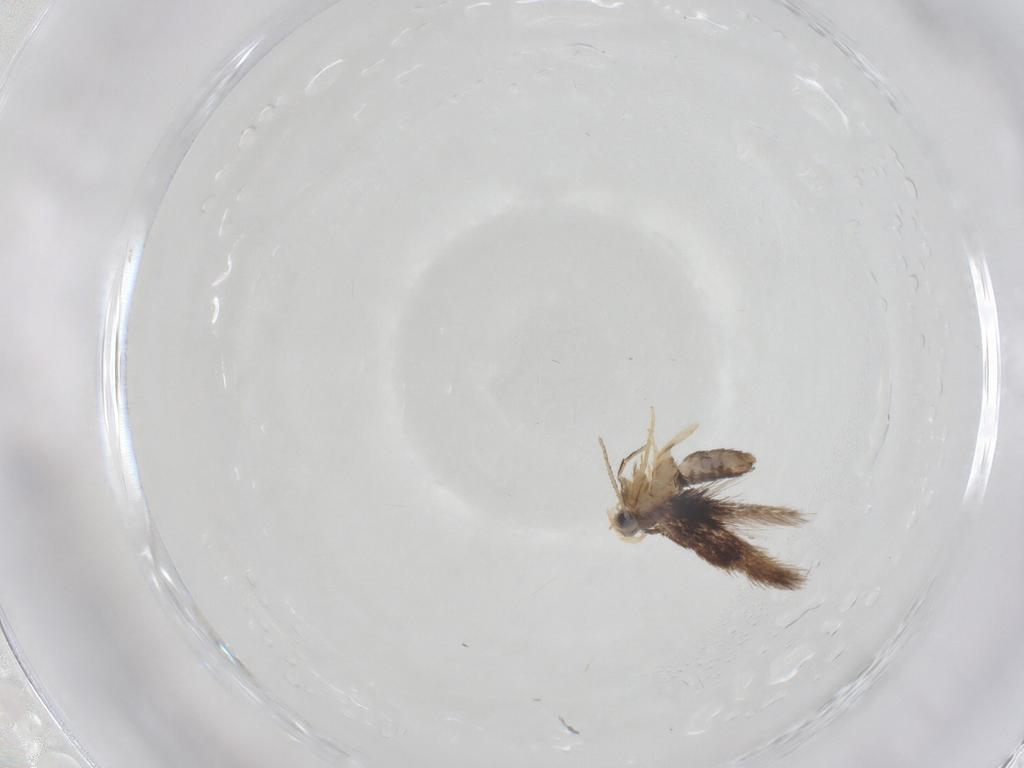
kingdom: Animalia
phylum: Arthropoda
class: Insecta
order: Lepidoptera
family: Nepticulidae
